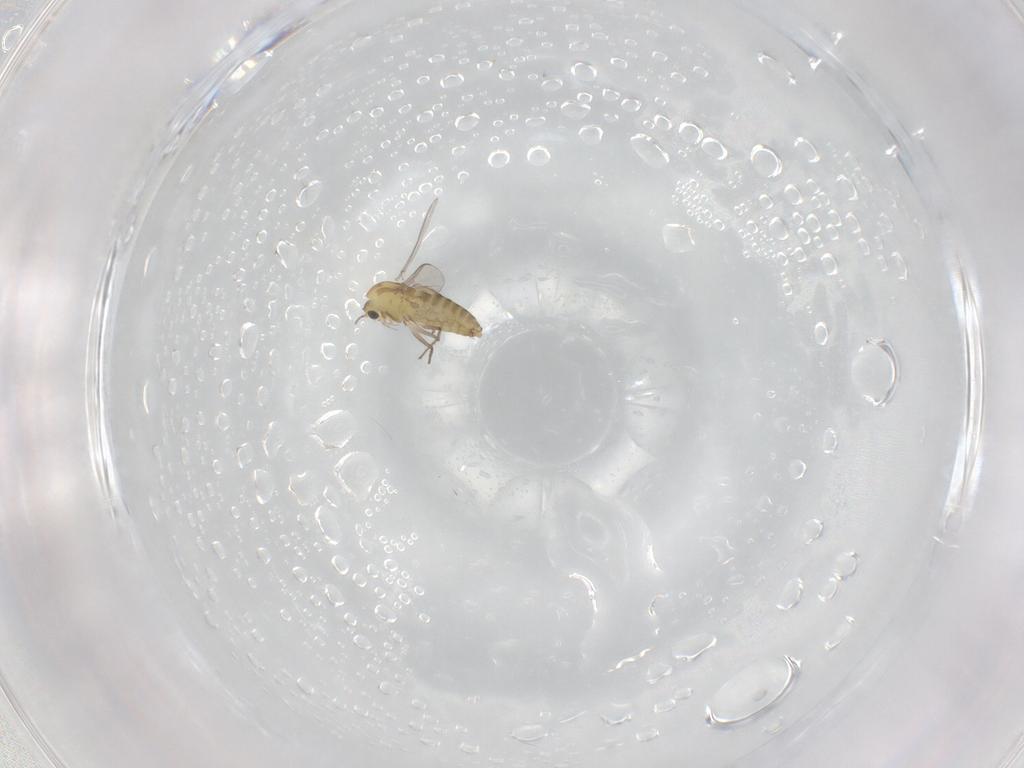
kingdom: Animalia
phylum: Arthropoda
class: Insecta
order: Diptera
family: Chironomidae
